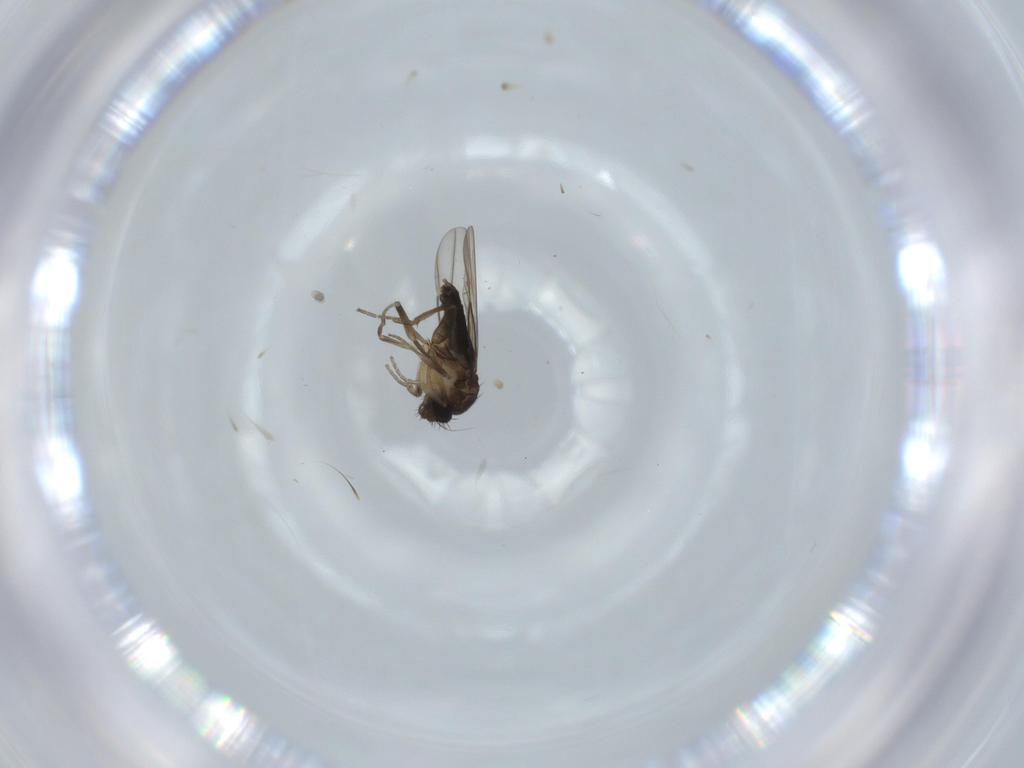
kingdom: Animalia
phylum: Arthropoda
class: Insecta
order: Diptera
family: Phoridae
